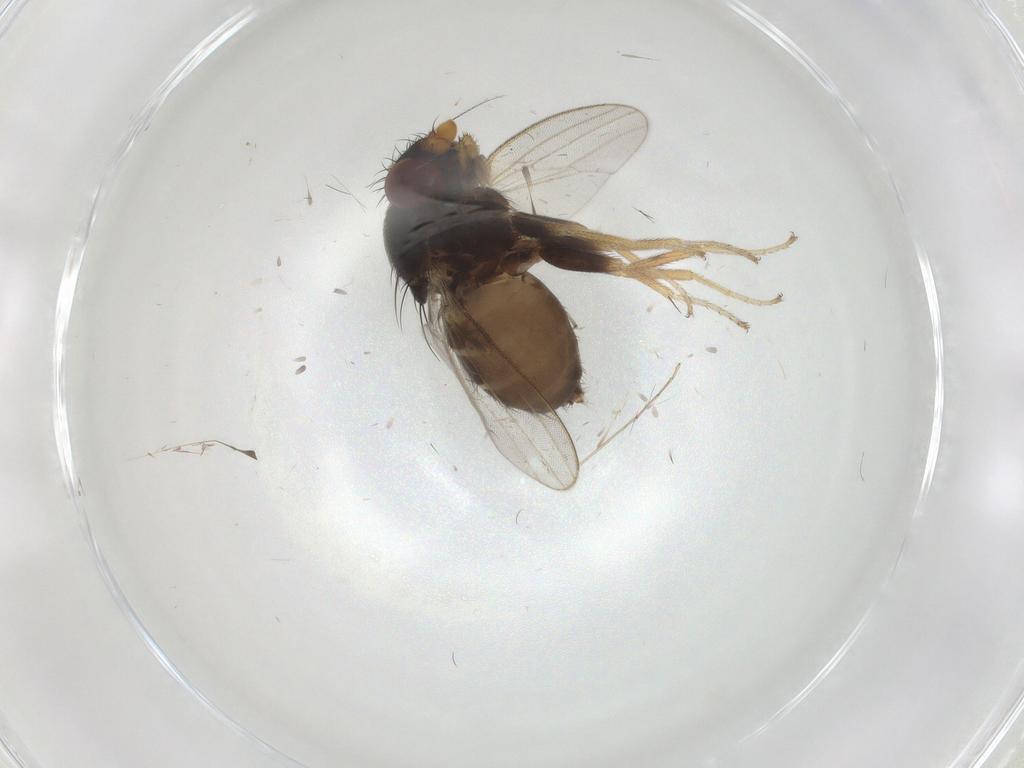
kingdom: Animalia
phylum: Arthropoda
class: Insecta
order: Diptera
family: Milichiidae
